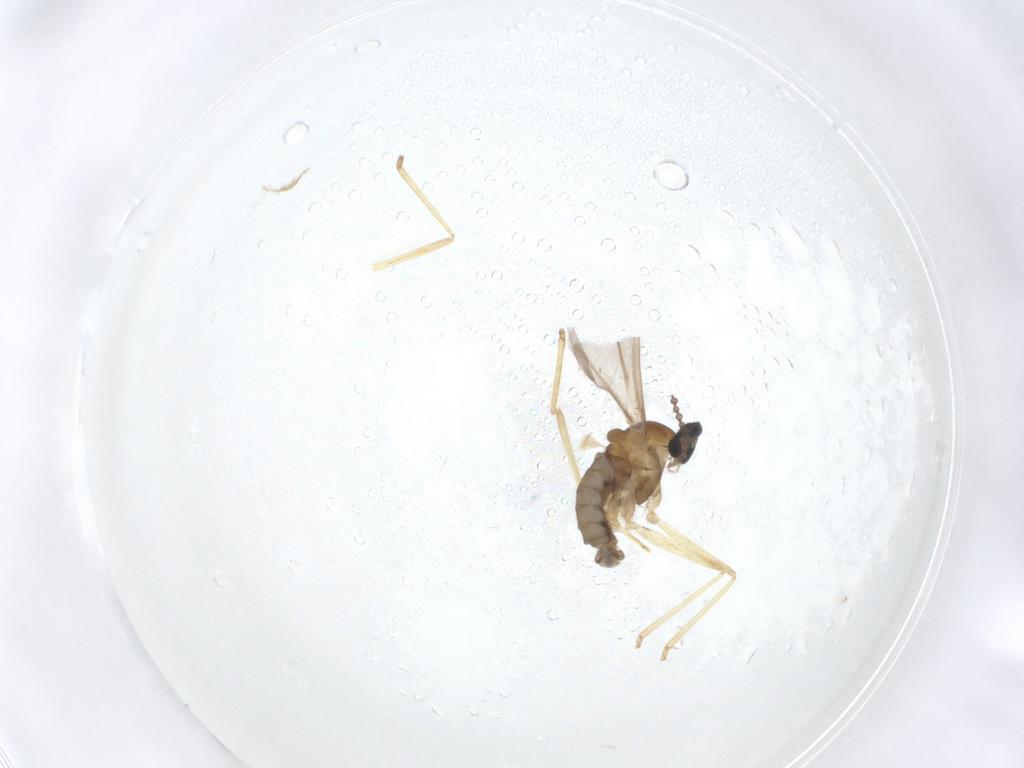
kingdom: Animalia
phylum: Arthropoda
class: Insecta
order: Diptera
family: Cecidomyiidae
